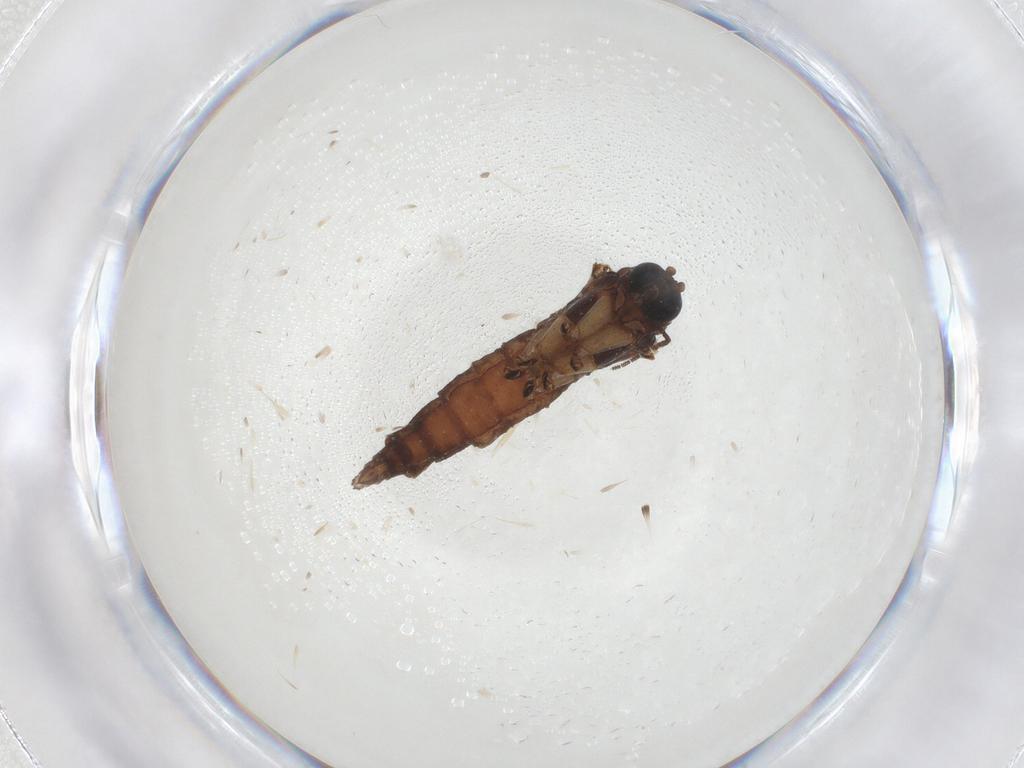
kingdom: Animalia
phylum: Arthropoda
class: Insecta
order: Diptera
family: Sciaridae
